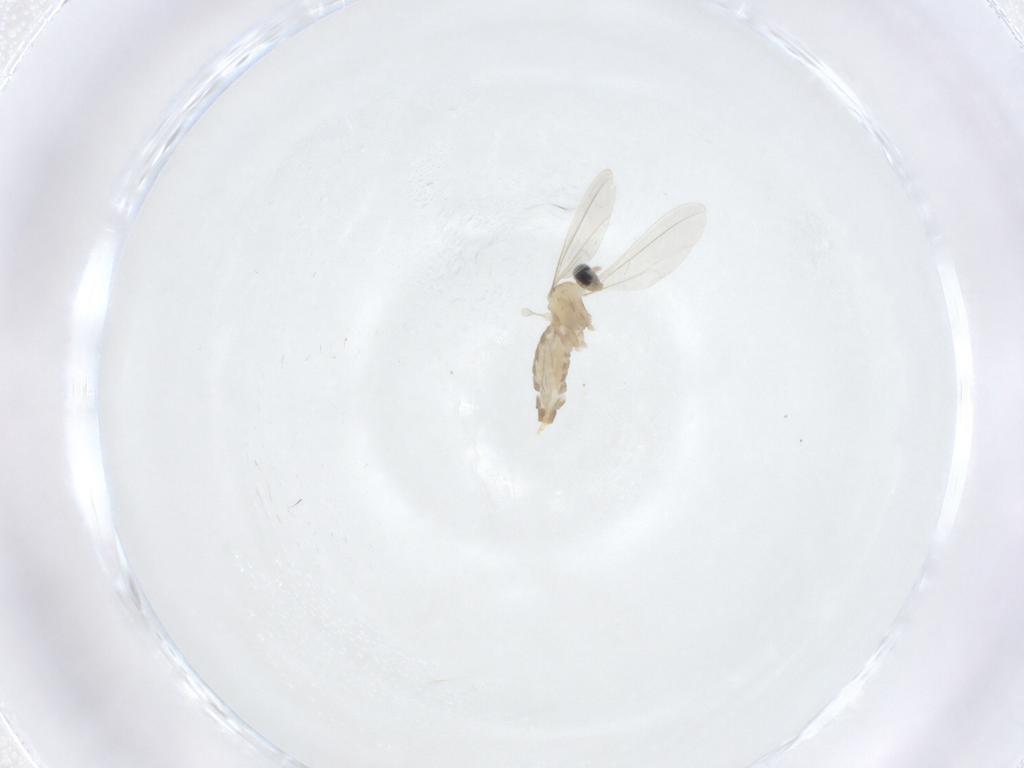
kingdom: Animalia
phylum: Arthropoda
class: Insecta
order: Diptera
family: Cecidomyiidae
